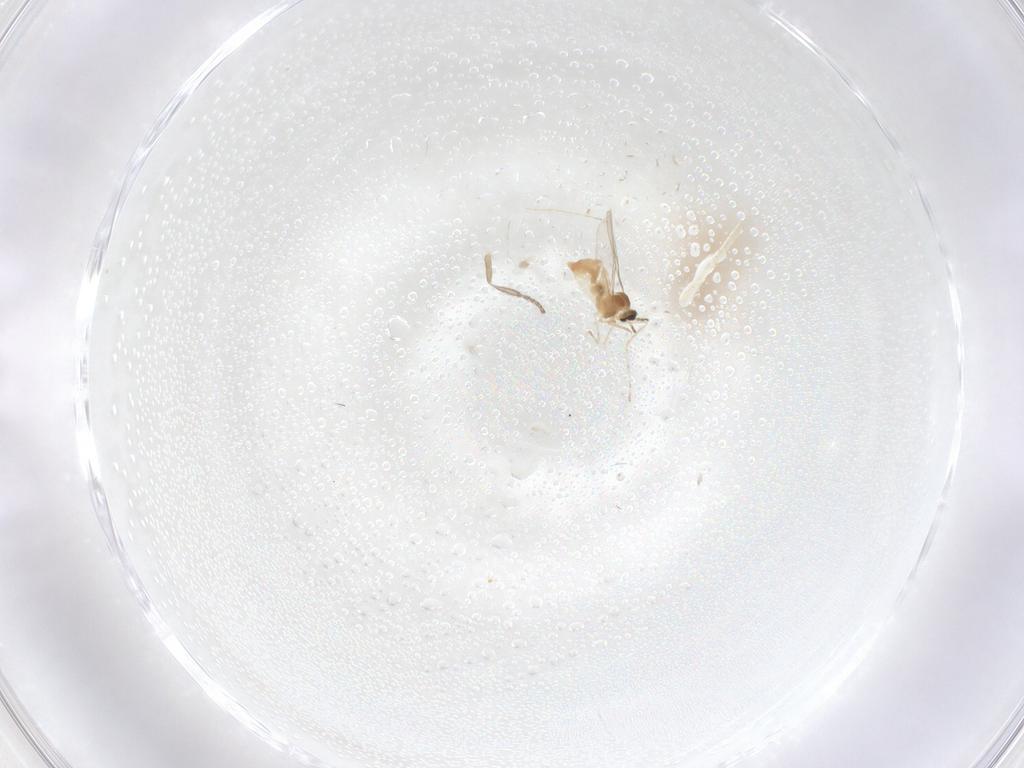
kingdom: Animalia
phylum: Arthropoda
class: Insecta
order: Diptera
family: Cecidomyiidae
